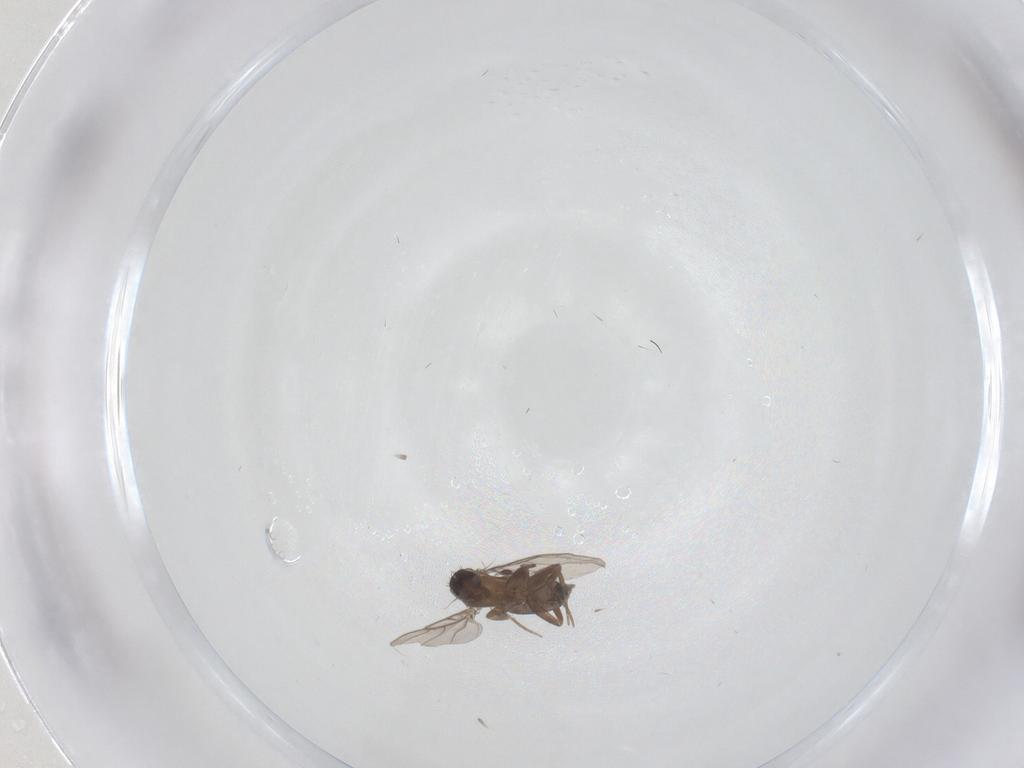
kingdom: Animalia
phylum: Arthropoda
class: Insecta
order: Diptera
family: Phoridae
